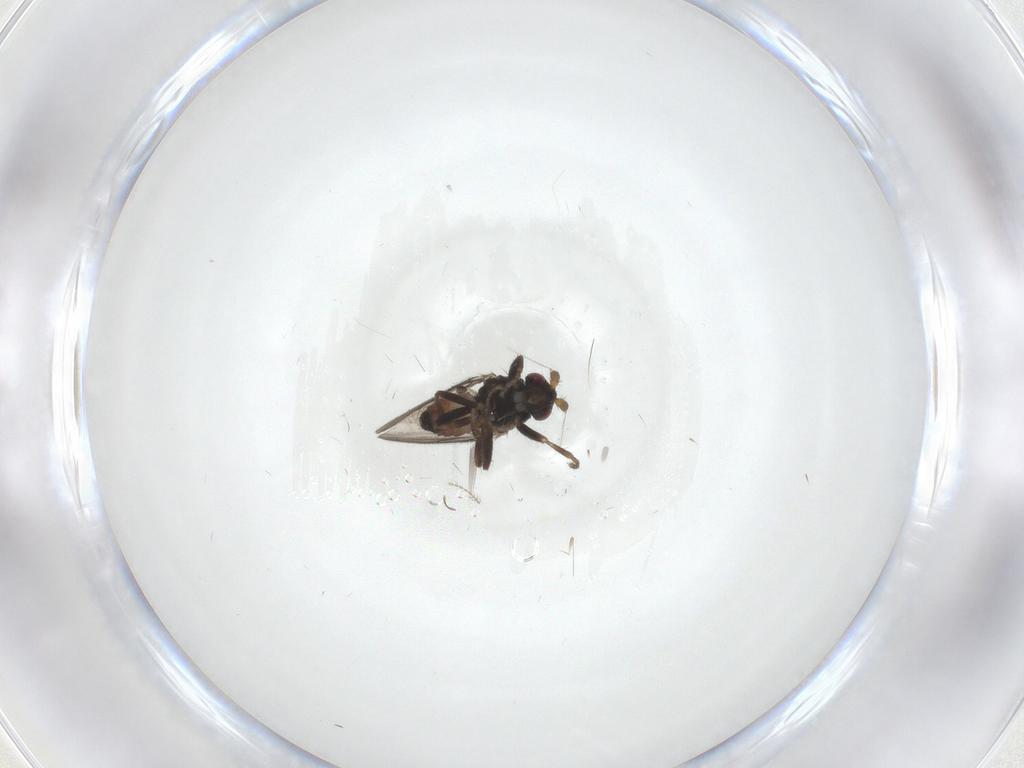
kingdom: Animalia
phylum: Arthropoda
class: Insecta
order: Diptera
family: Sphaeroceridae
